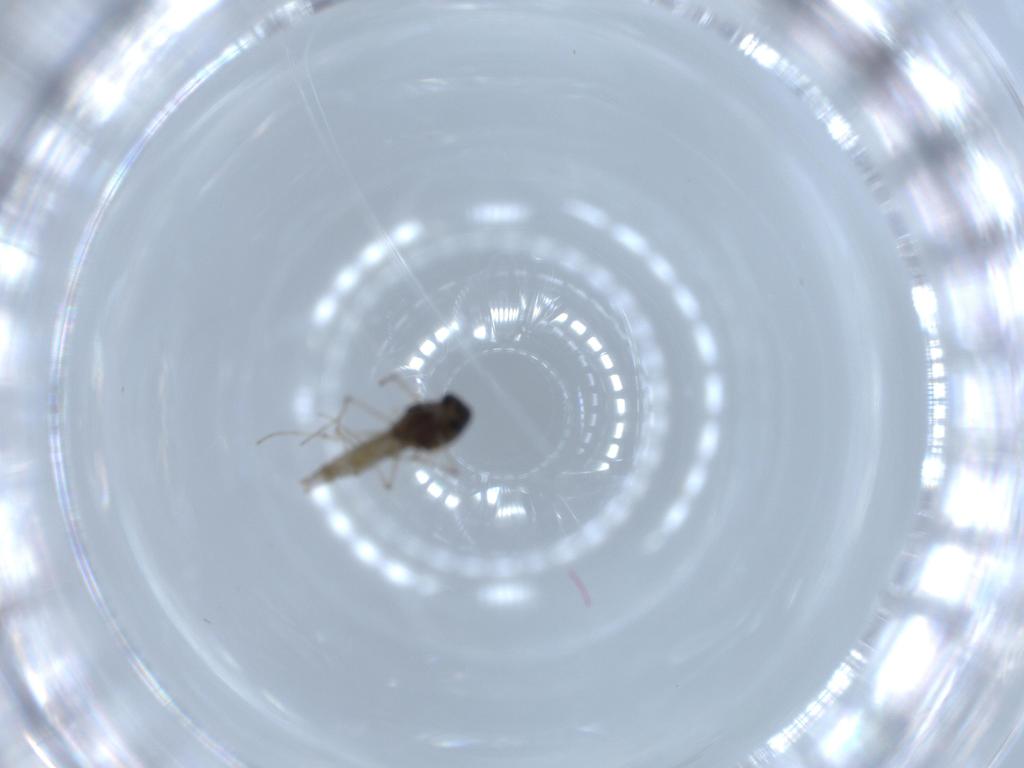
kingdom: Animalia
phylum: Arthropoda
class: Insecta
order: Diptera
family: Chironomidae
